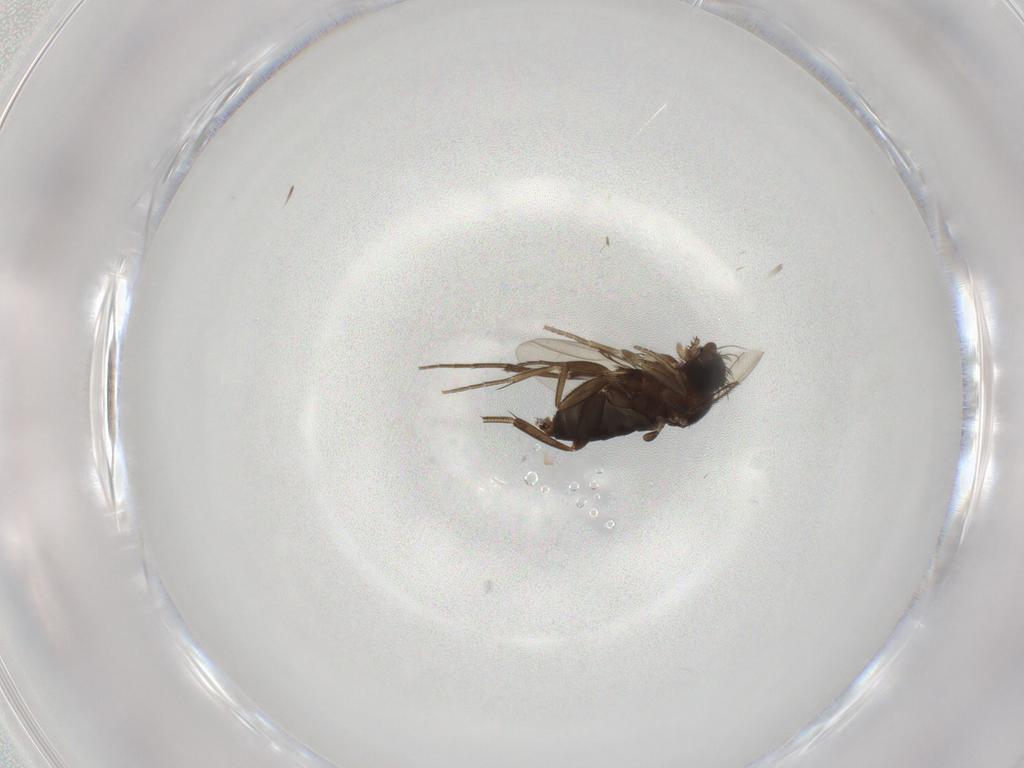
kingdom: Animalia
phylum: Arthropoda
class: Insecta
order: Diptera
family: Phoridae
